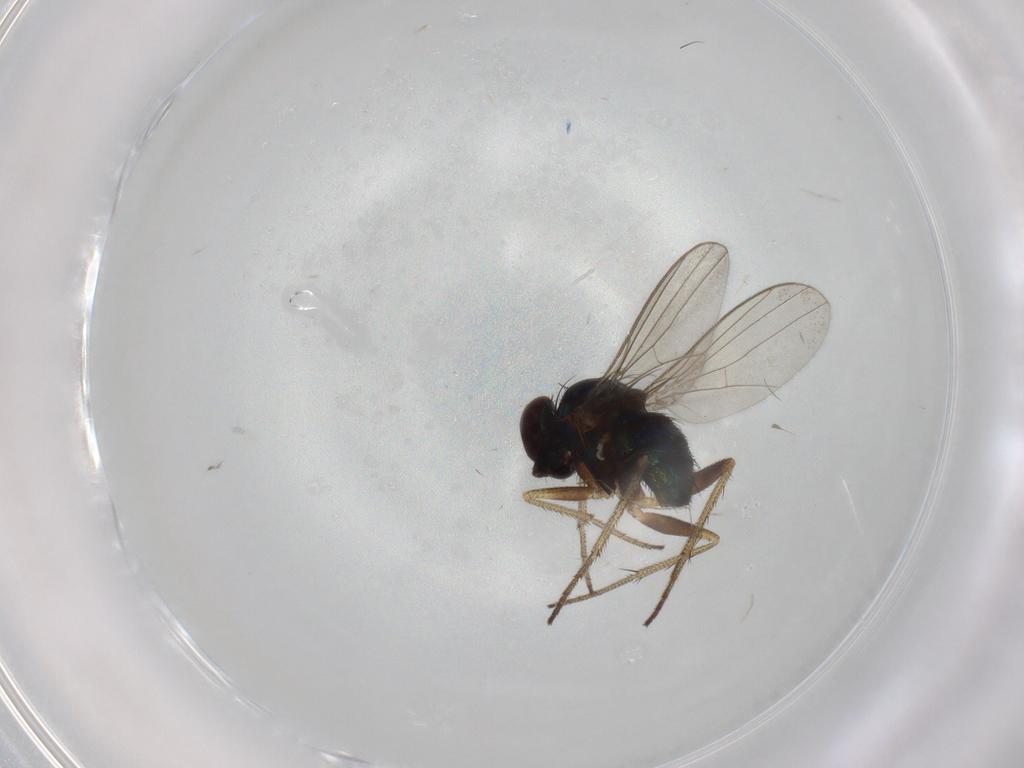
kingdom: Animalia
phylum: Arthropoda
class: Insecta
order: Diptera
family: Dolichopodidae
